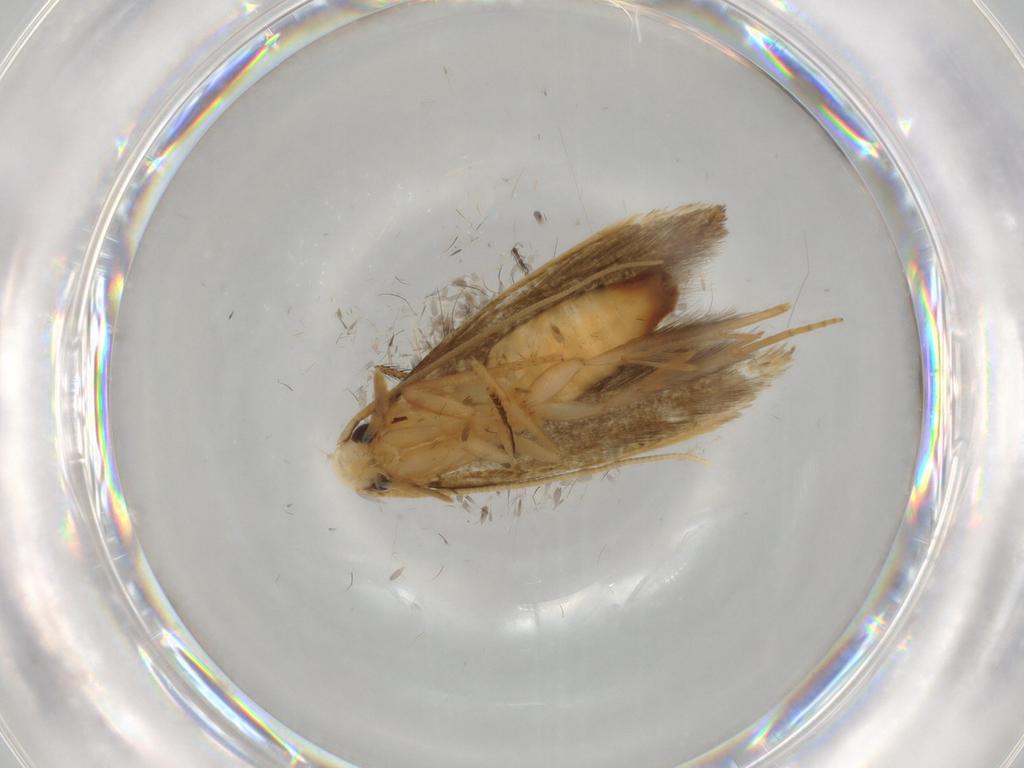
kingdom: Animalia
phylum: Arthropoda
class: Insecta
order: Lepidoptera
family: Tineidae
